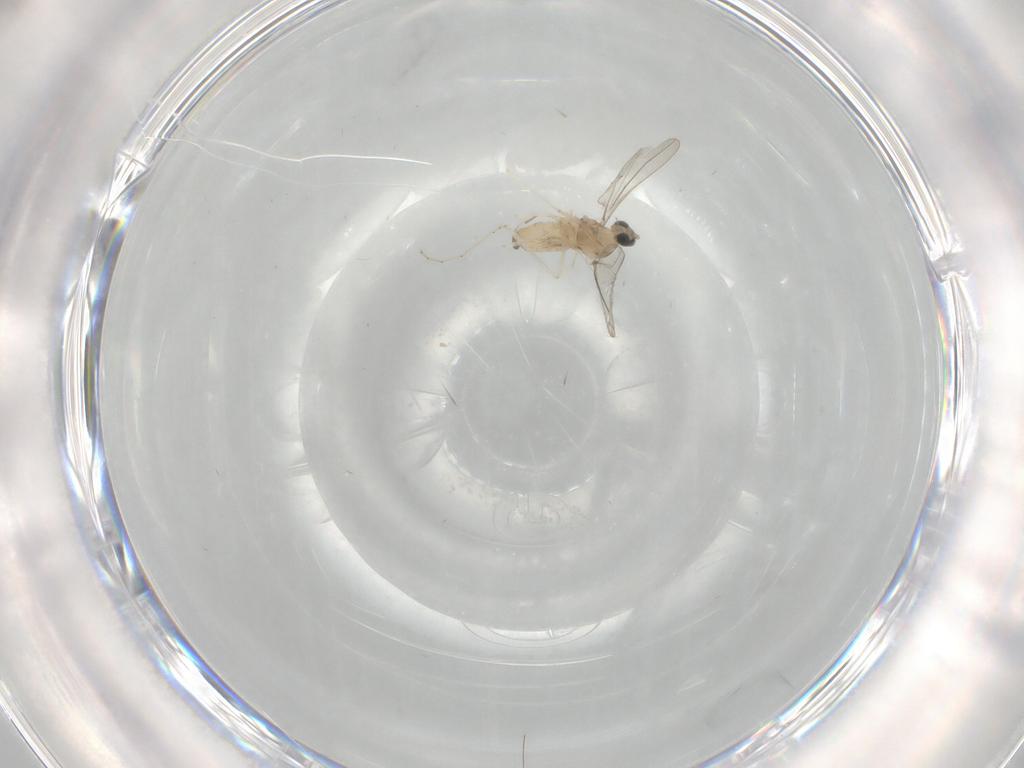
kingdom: Animalia
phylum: Arthropoda
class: Insecta
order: Diptera
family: Cecidomyiidae
